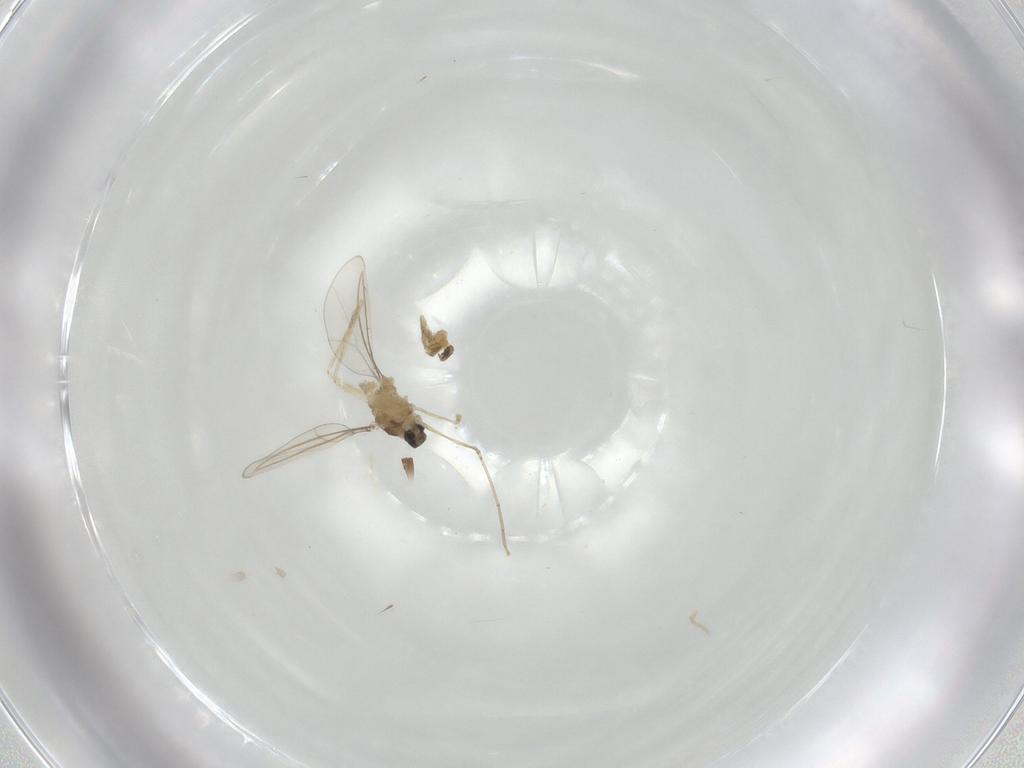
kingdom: Animalia
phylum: Arthropoda
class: Insecta
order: Diptera
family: Cecidomyiidae
